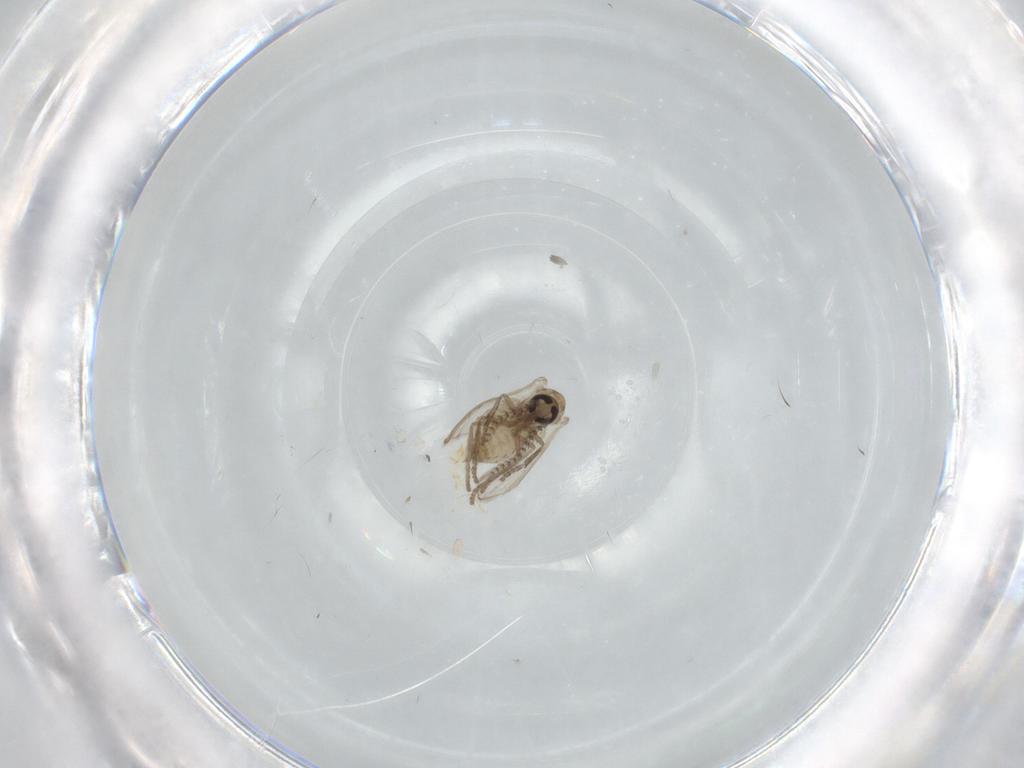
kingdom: Animalia
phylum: Arthropoda
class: Insecta
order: Diptera
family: Psychodidae
